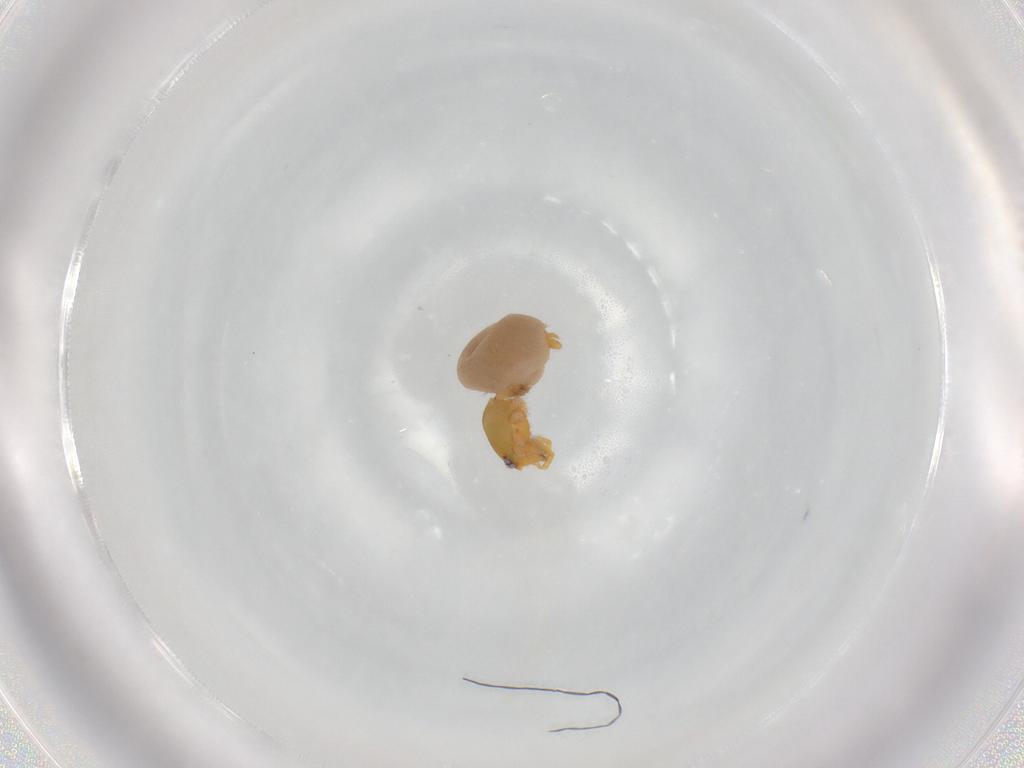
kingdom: Animalia
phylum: Arthropoda
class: Arachnida
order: Araneae
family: Oonopidae
